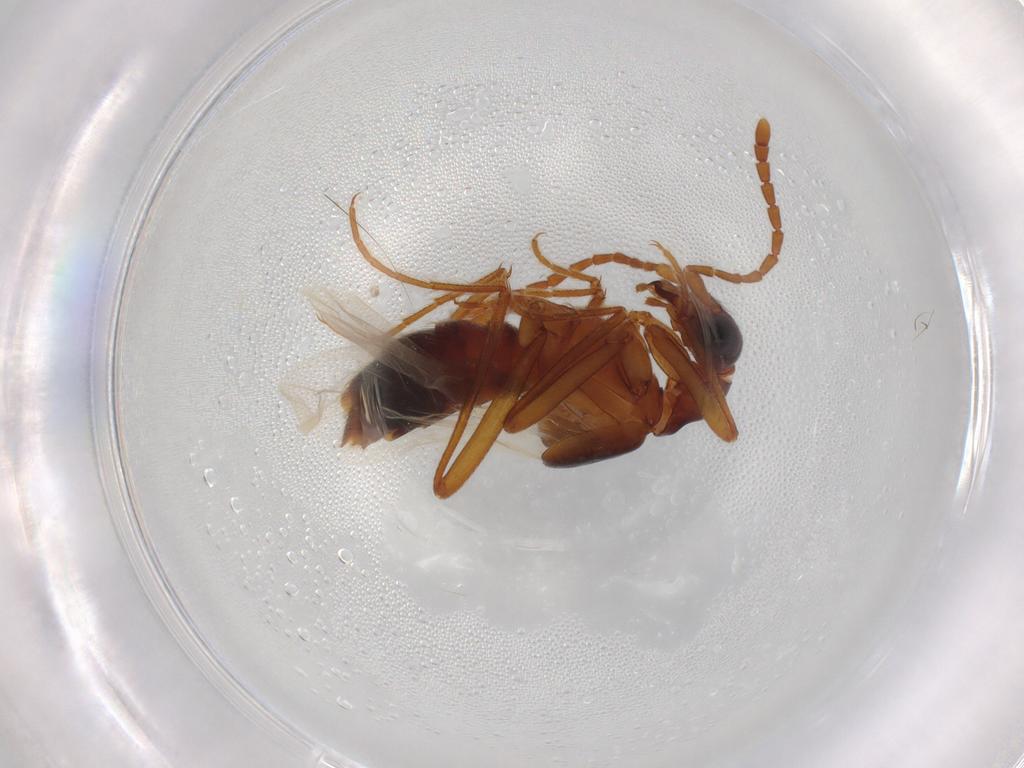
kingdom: Animalia
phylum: Arthropoda
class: Insecta
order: Coleoptera
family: Staphylinidae
